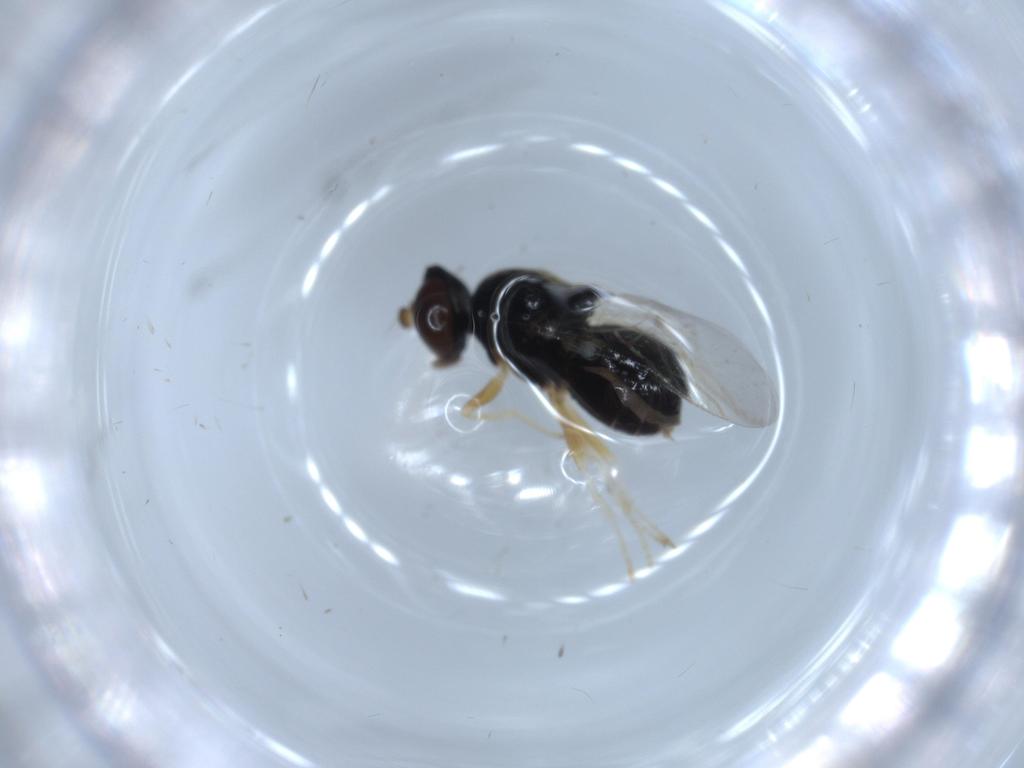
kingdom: Animalia
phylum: Arthropoda
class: Insecta
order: Diptera
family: Stratiomyidae
